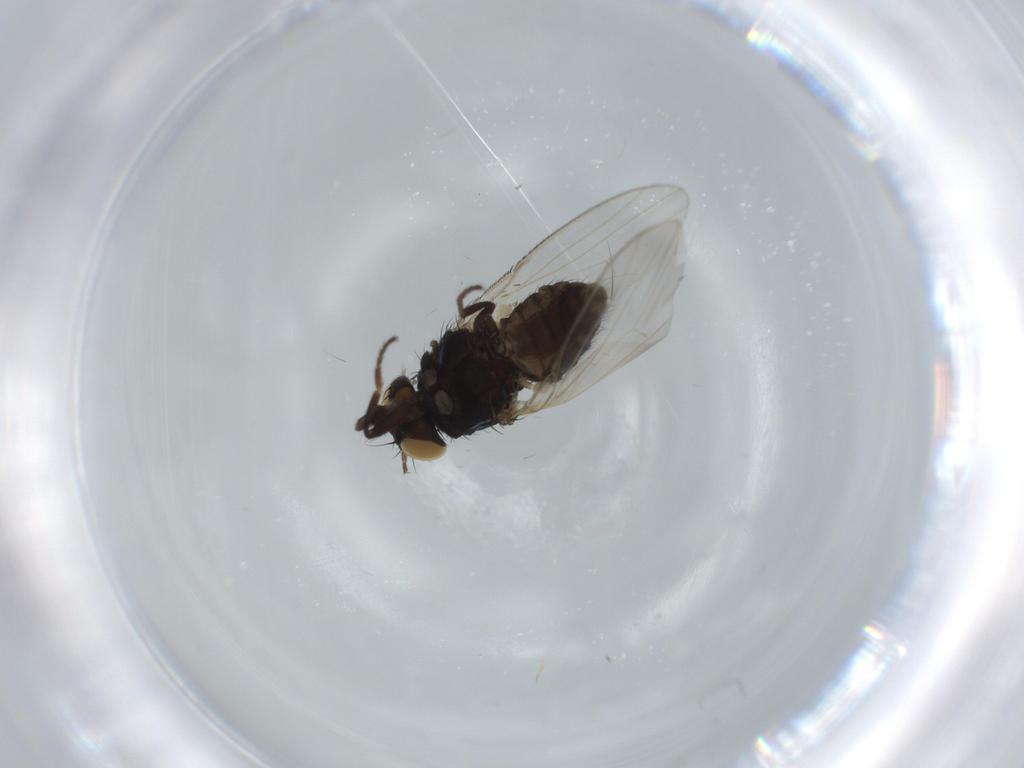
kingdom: Animalia
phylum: Arthropoda
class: Insecta
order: Diptera
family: Carnidae
